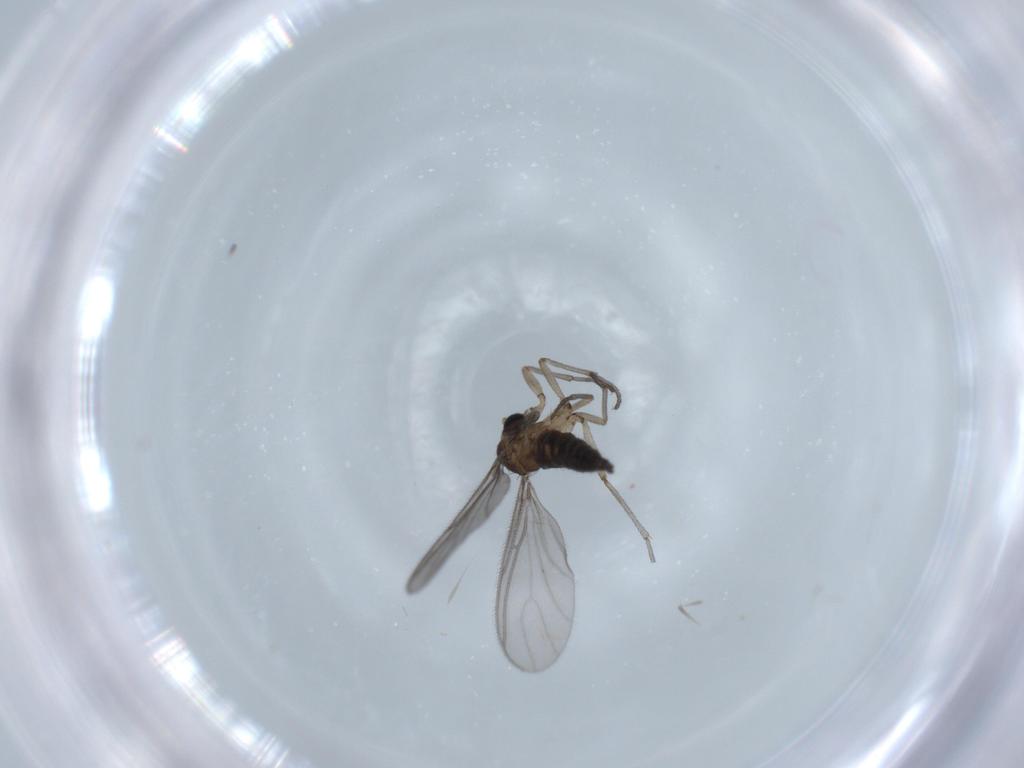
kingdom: Animalia
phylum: Arthropoda
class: Insecta
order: Diptera
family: Sciaridae
